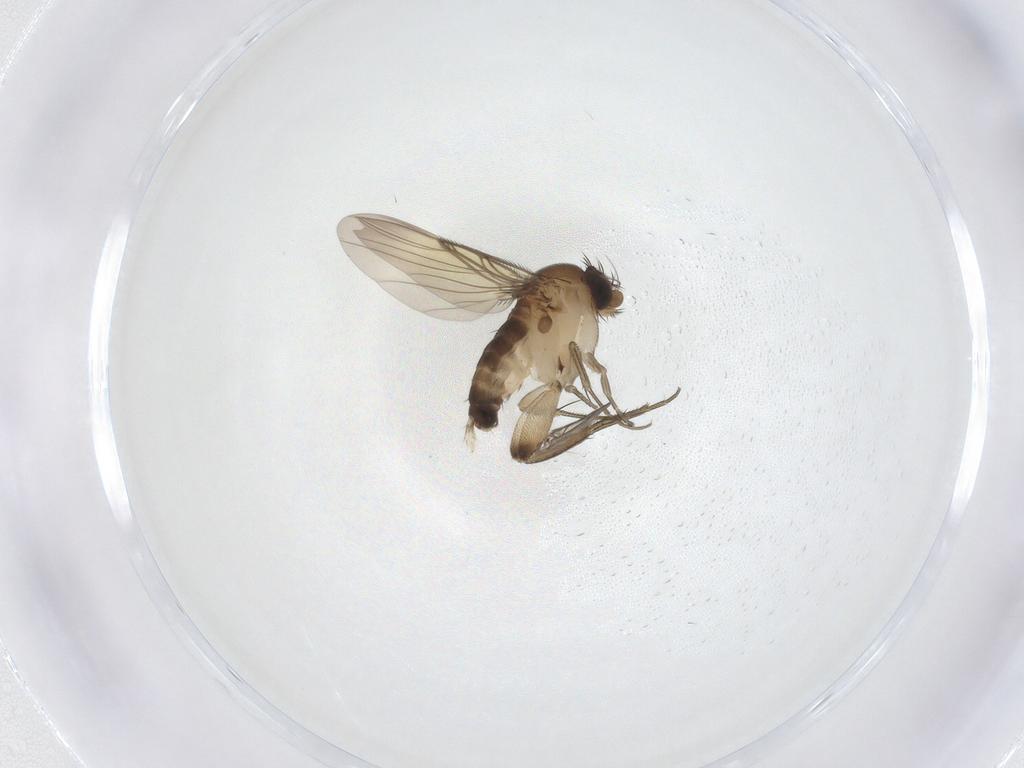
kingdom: Animalia
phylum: Arthropoda
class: Insecta
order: Diptera
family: Phoridae
